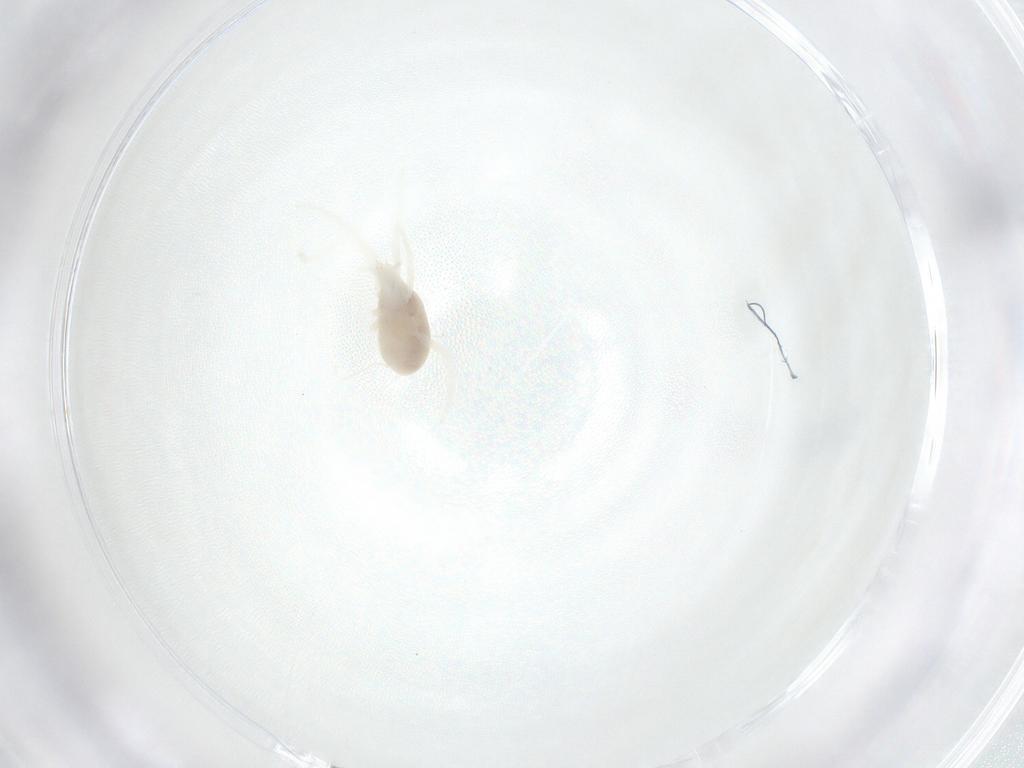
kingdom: Animalia
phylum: Arthropoda
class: Arachnida
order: Trombidiformes
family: Rhagidiidae
